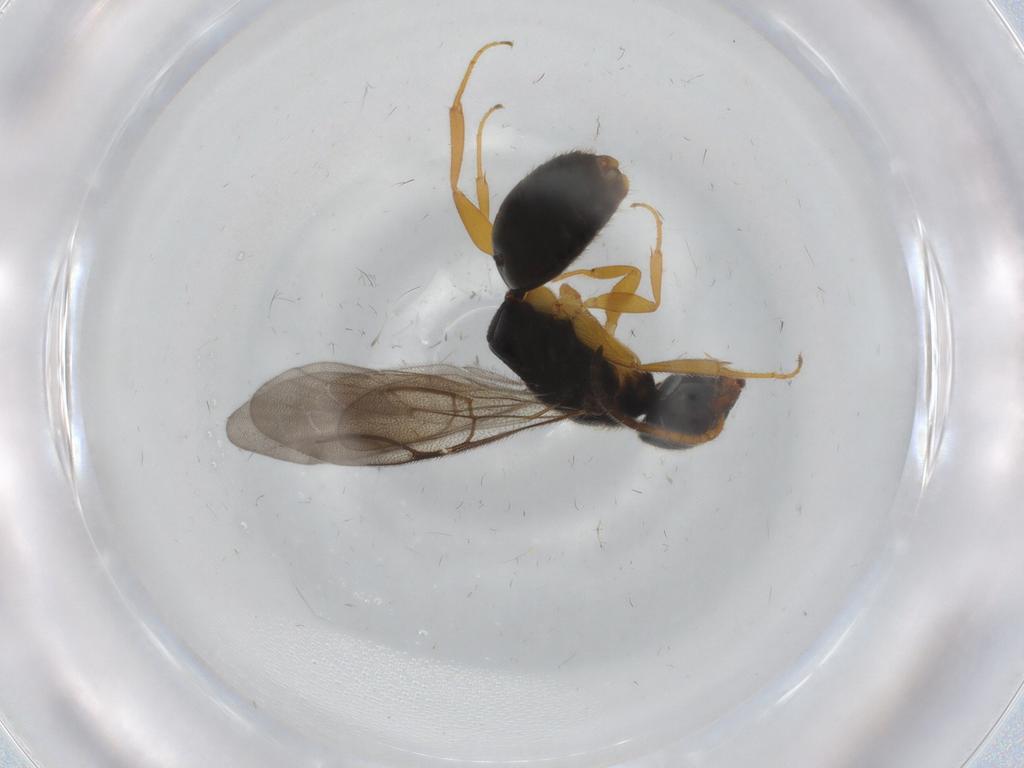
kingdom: Animalia
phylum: Arthropoda
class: Insecta
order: Hymenoptera
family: Bethylidae
